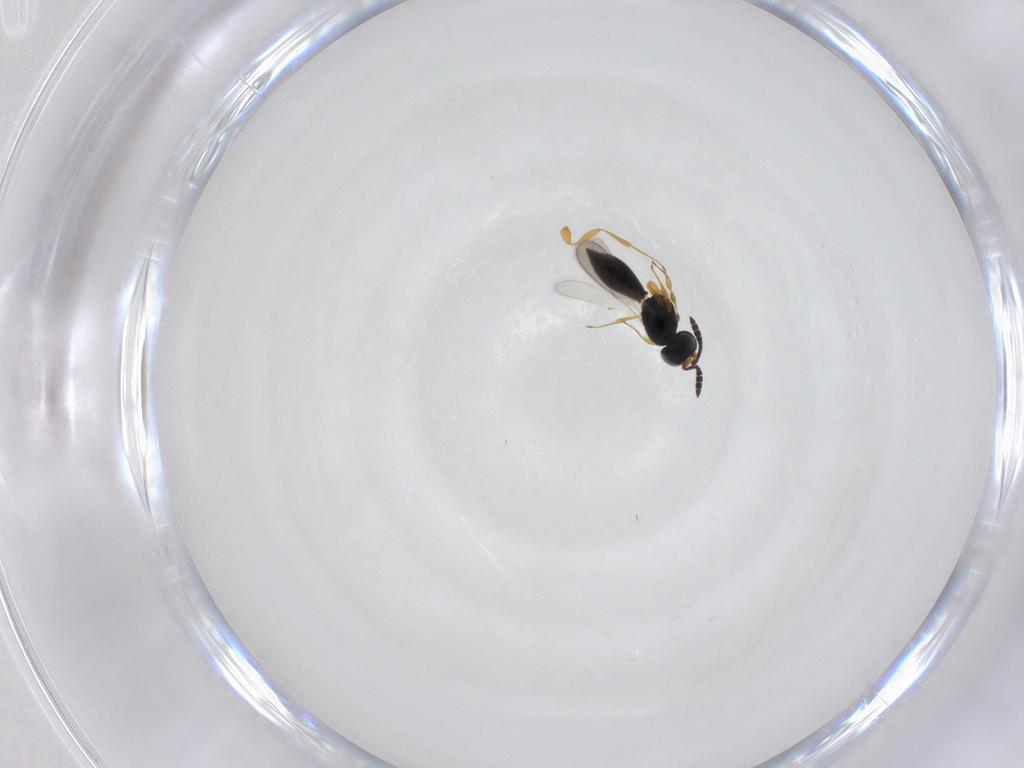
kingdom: Animalia
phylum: Arthropoda
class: Insecta
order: Hymenoptera
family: Scelionidae
